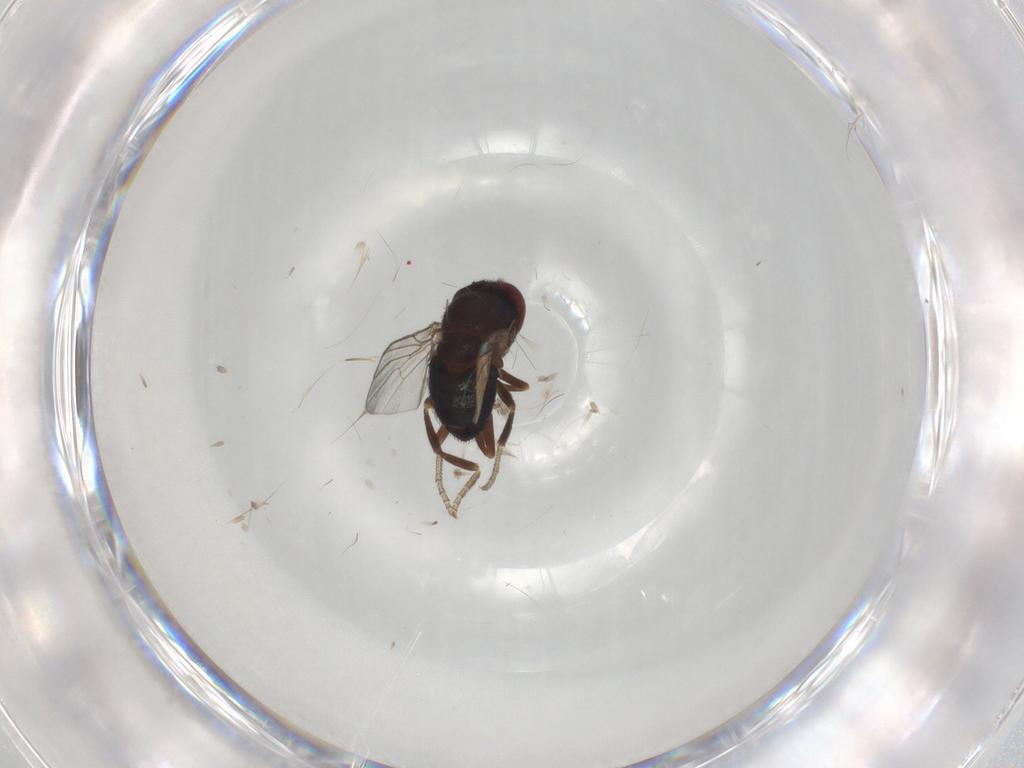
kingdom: Animalia
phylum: Arthropoda
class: Insecta
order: Diptera
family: Cecidomyiidae
